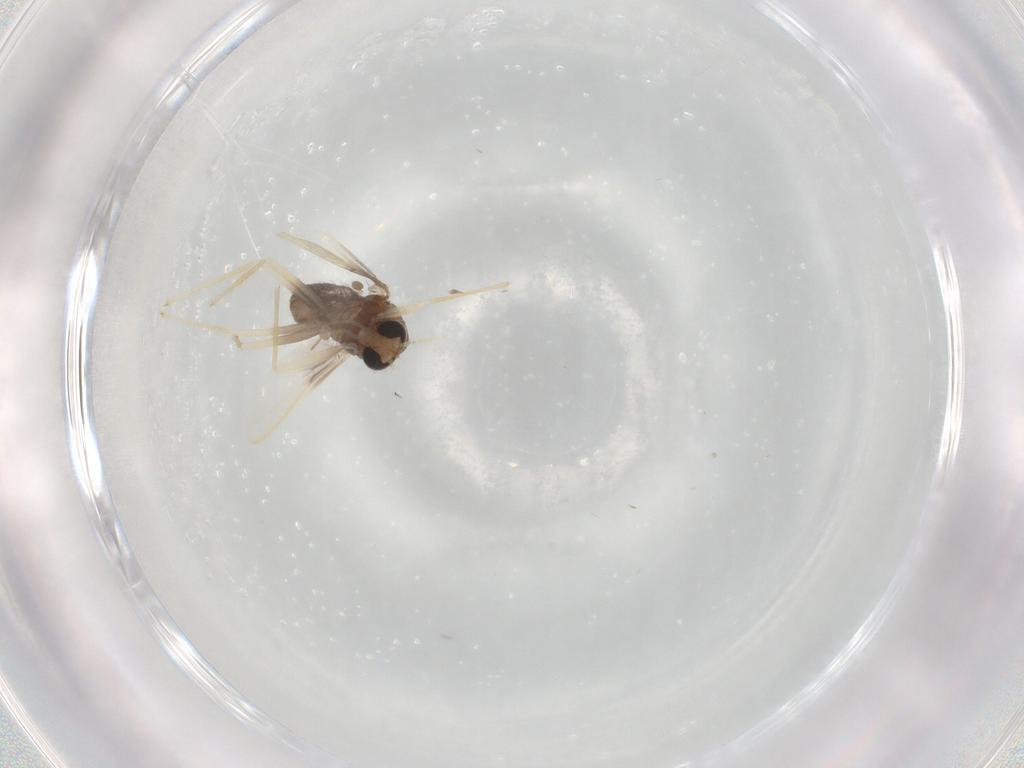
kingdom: Animalia
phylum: Arthropoda
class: Insecta
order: Diptera
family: Chironomidae
